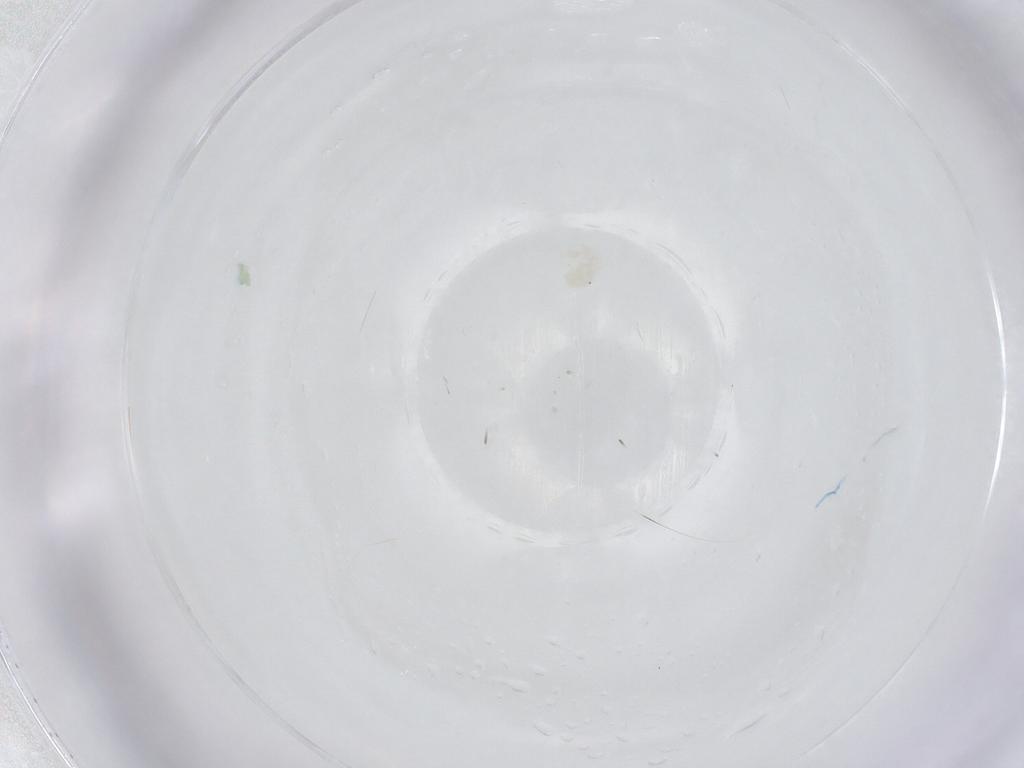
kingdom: Animalia
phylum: Arthropoda
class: Arachnida
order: Trombidiformes
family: Anystidae
